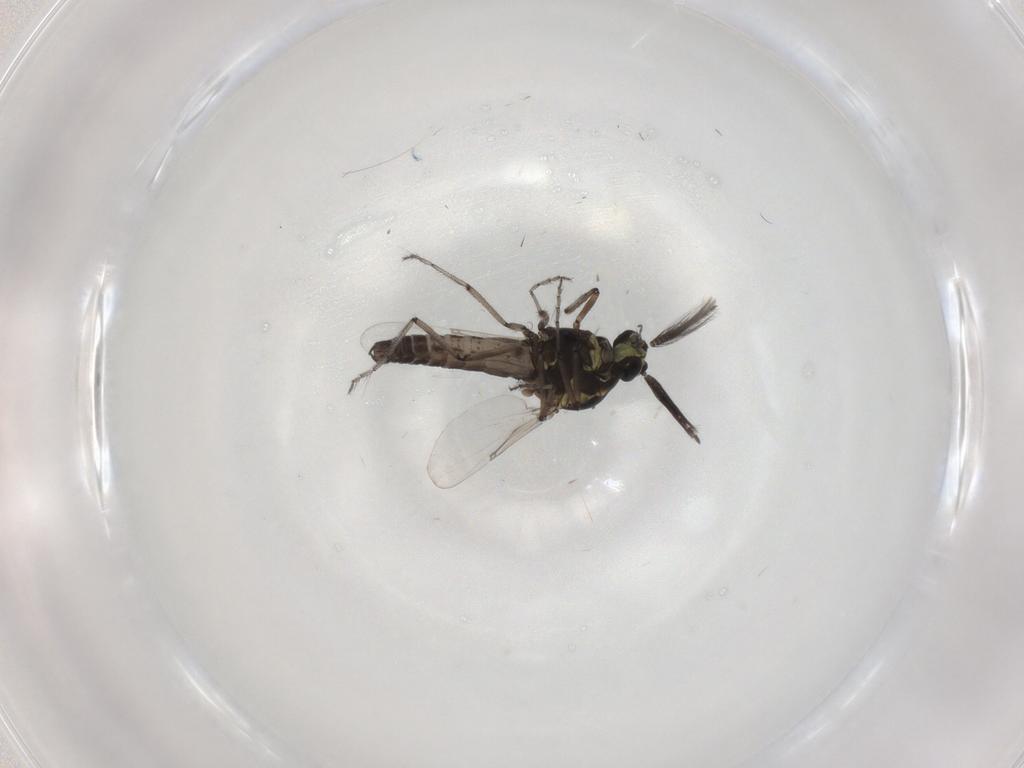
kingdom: Animalia
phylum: Arthropoda
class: Insecta
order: Diptera
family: Ceratopogonidae
